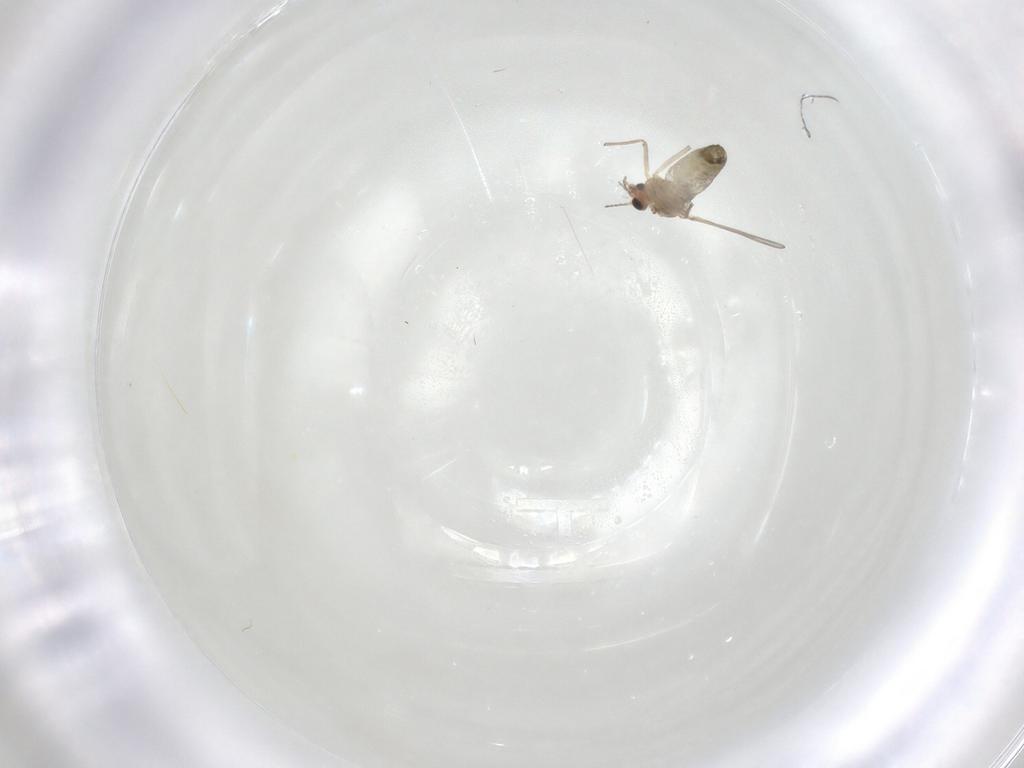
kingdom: Animalia
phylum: Arthropoda
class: Insecta
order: Diptera
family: Chironomidae
